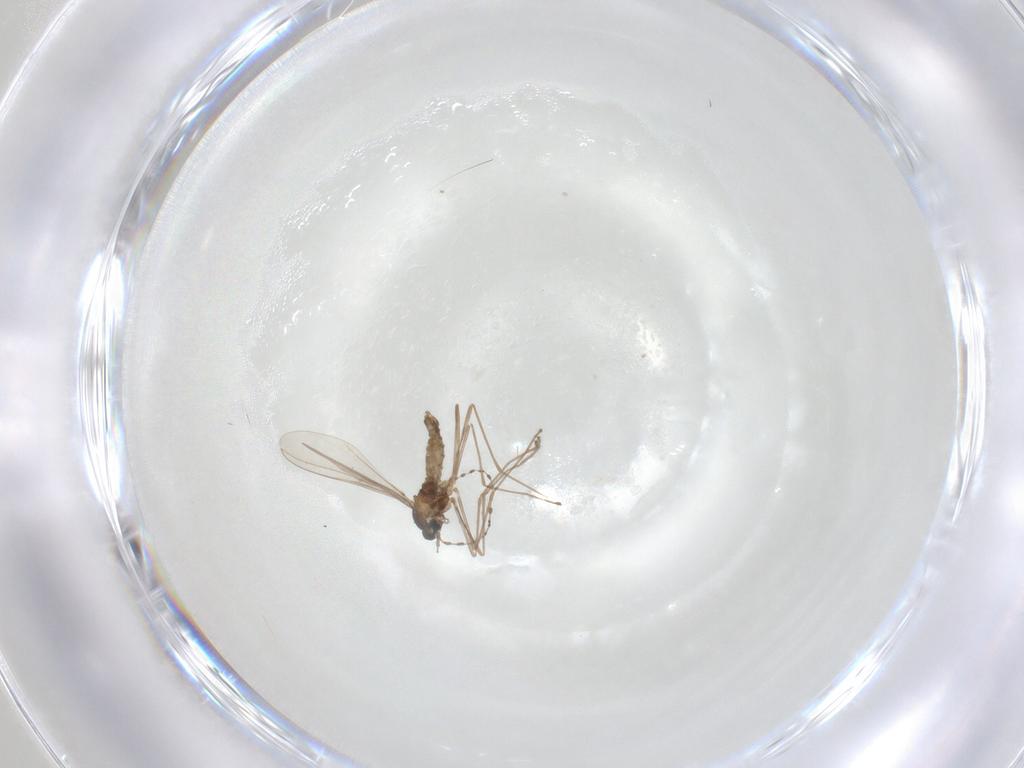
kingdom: Animalia
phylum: Arthropoda
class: Insecta
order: Diptera
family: Cecidomyiidae
